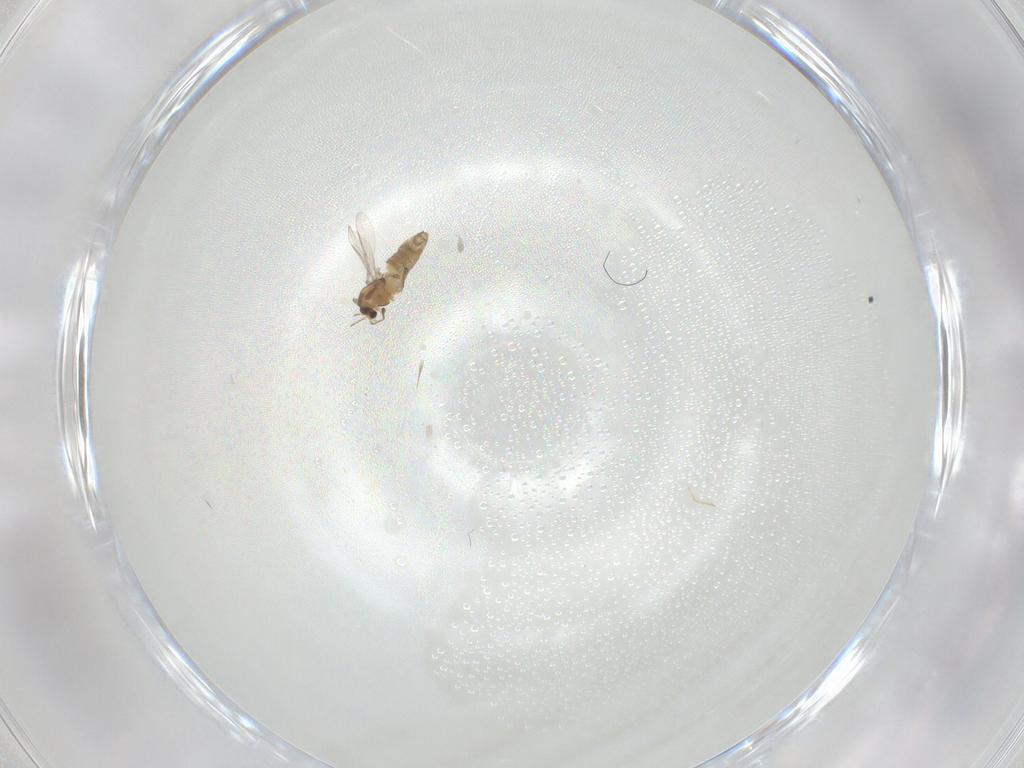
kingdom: Animalia
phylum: Arthropoda
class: Insecta
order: Diptera
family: Chironomidae
